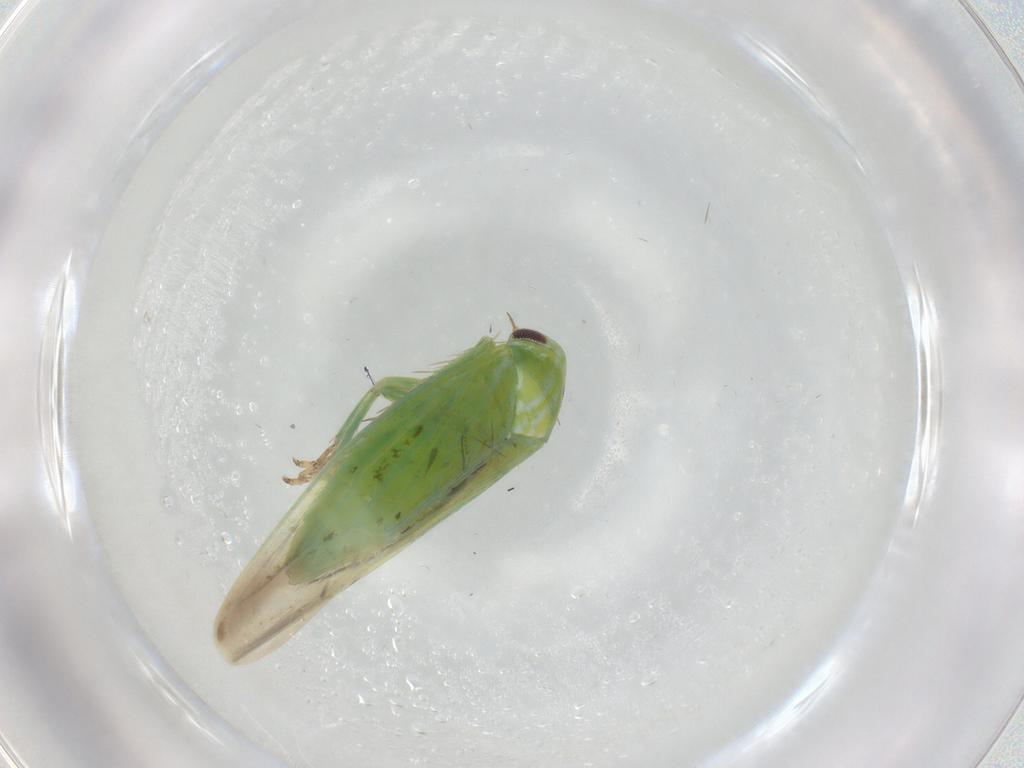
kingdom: Animalia
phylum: Arthropoda
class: Insecta
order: Hemiptera
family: Cicadellidae
